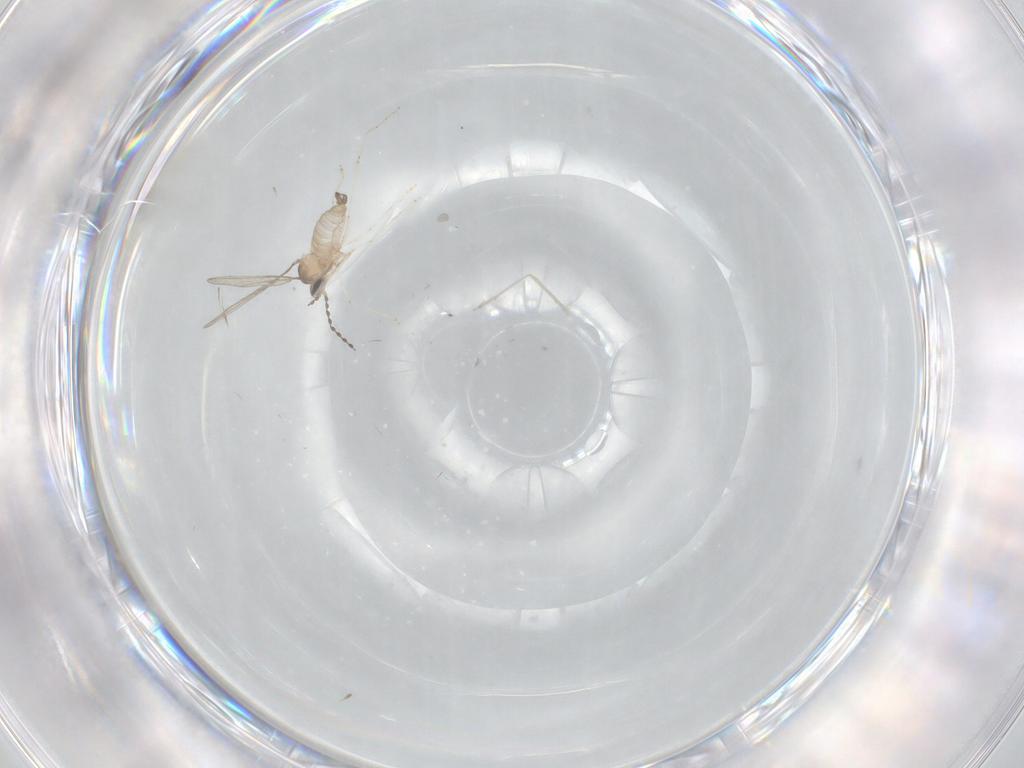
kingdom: Animalia
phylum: Arthropoda
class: Insecta
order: Diptera
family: Cecidomyiidae
